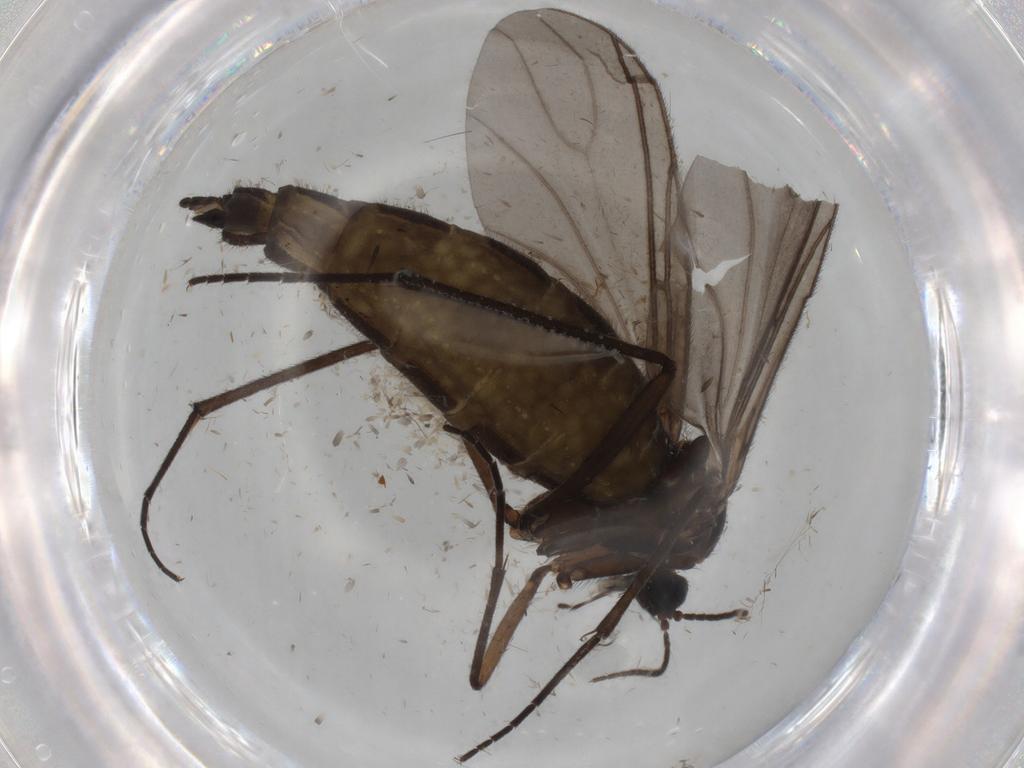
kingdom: Animalia
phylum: Arthropoda
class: Insecta
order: Diptera
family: Sciaridae
